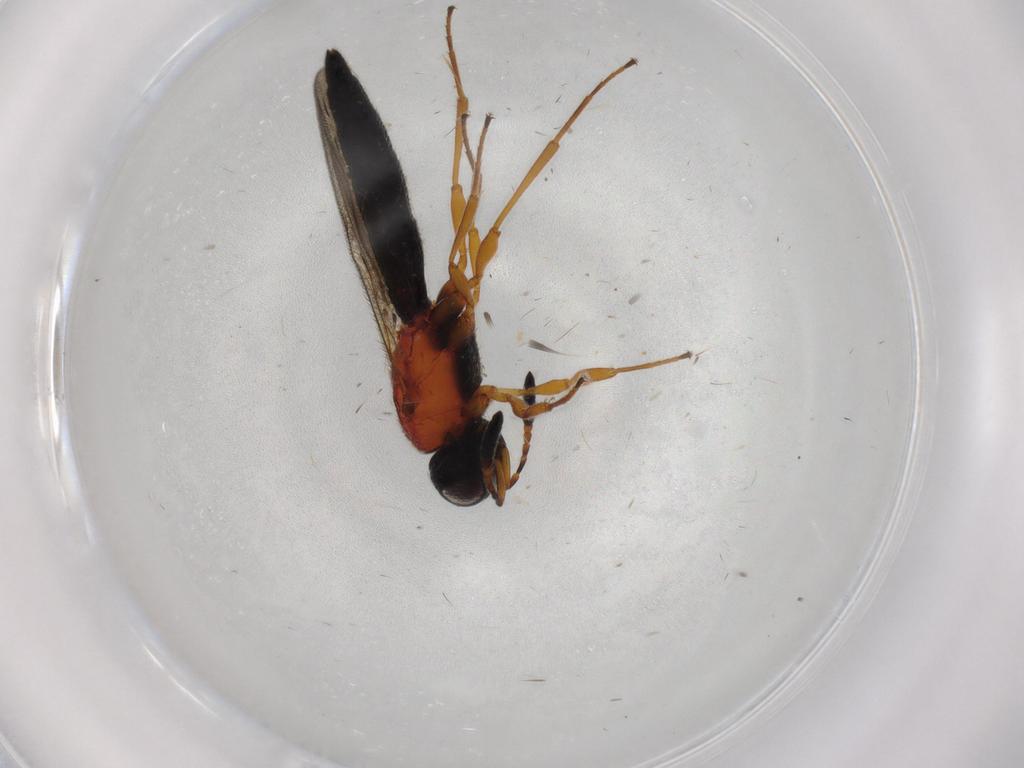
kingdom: Animalia
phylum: Arthropoda
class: Insecta
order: Hymenoptera
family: Scelionidae
